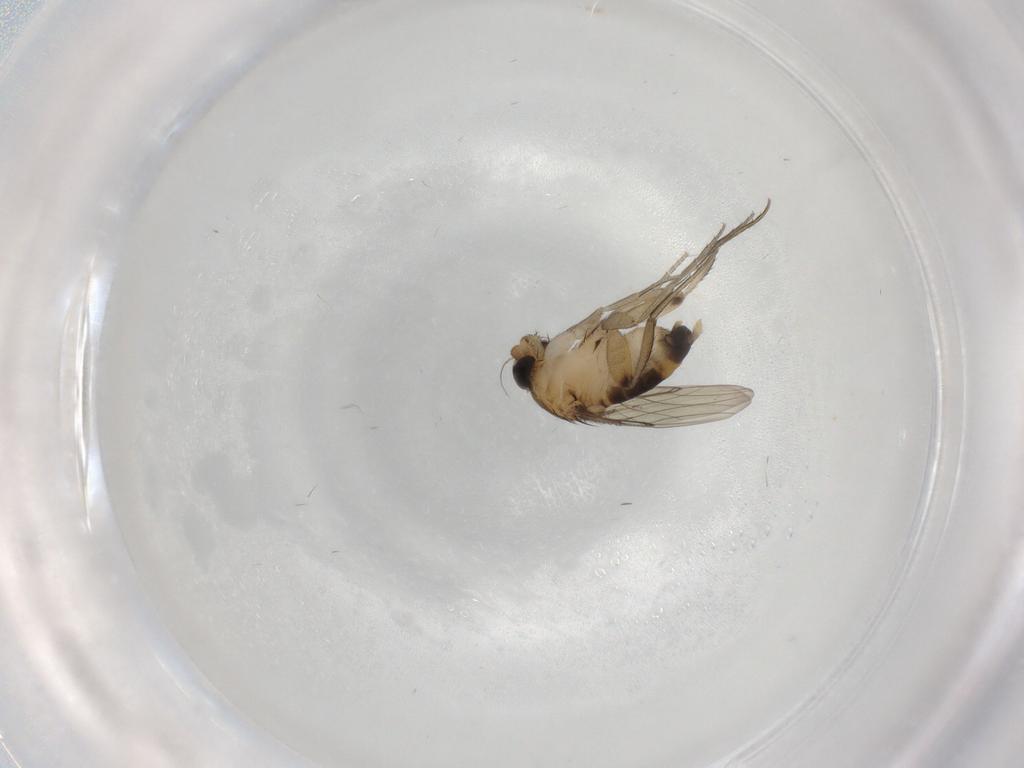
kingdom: Animalia
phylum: Arthropoda
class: Insecta
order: Diptera
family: Phoridae
